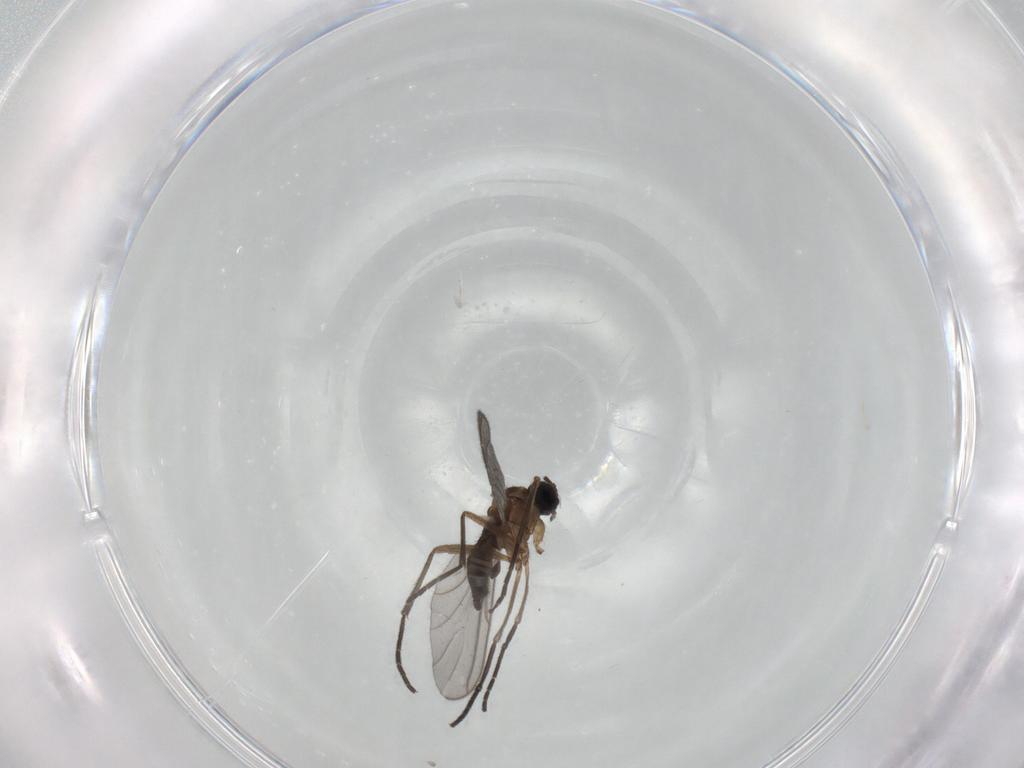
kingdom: Animalia
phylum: Arthropoda
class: Insecta
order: Diptera
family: Sciaridae
